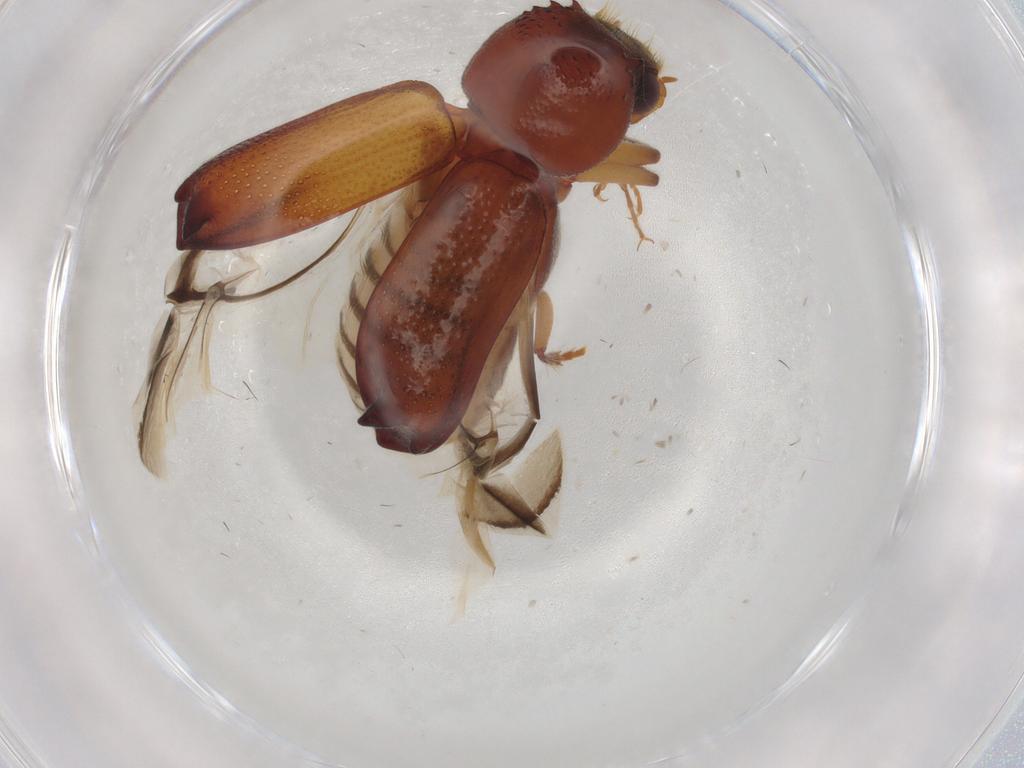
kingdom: Animalia
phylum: Arthropoda
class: Insecta
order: Coleoptera
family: Bostrichidae
